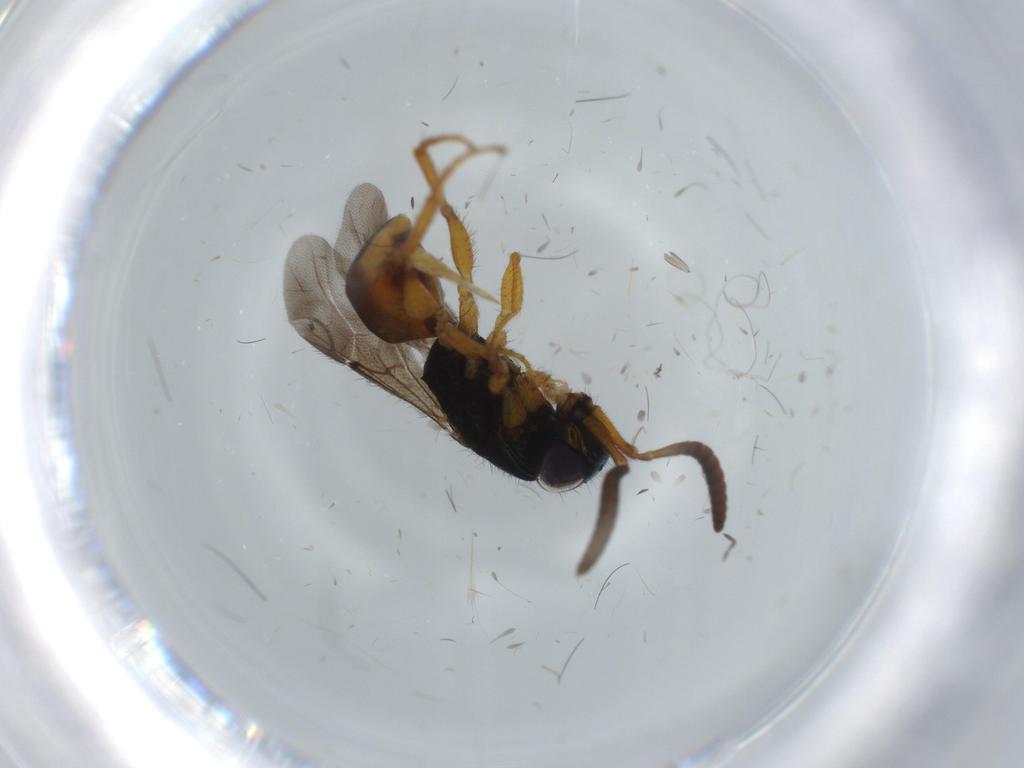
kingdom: Animalia
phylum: Arthropoda
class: Insecta
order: Hymenoptera
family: Chrysididae
